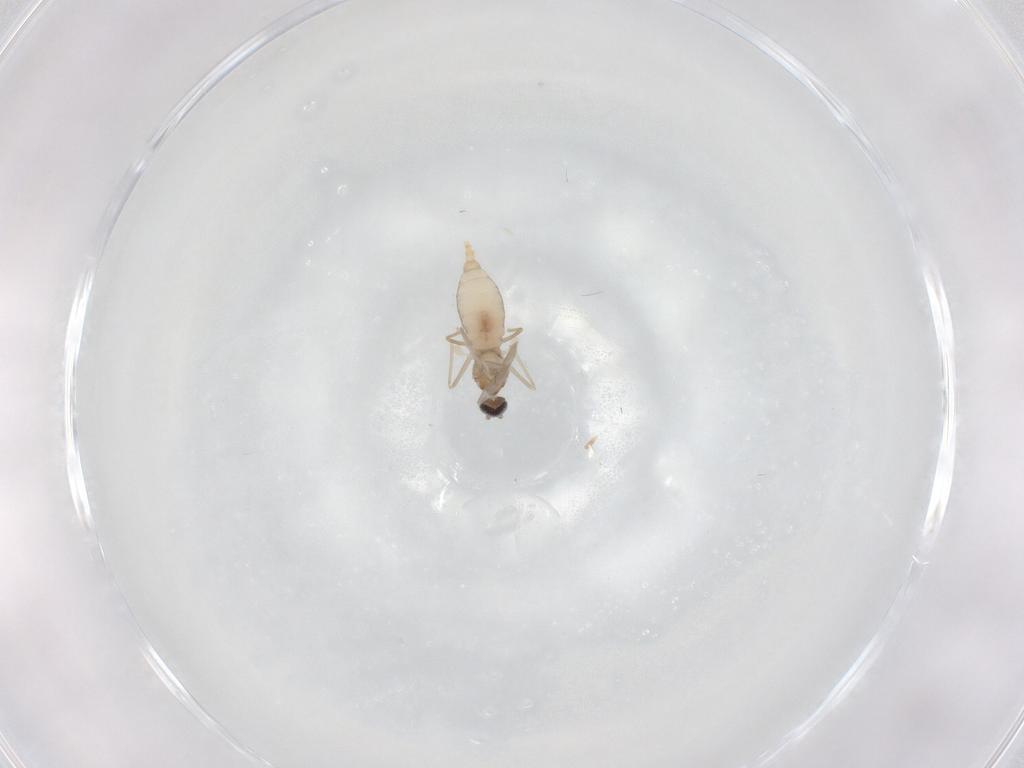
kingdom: Animalia
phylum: Arthropoda
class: Insecta
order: Diptera
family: Cecidomyiidae
